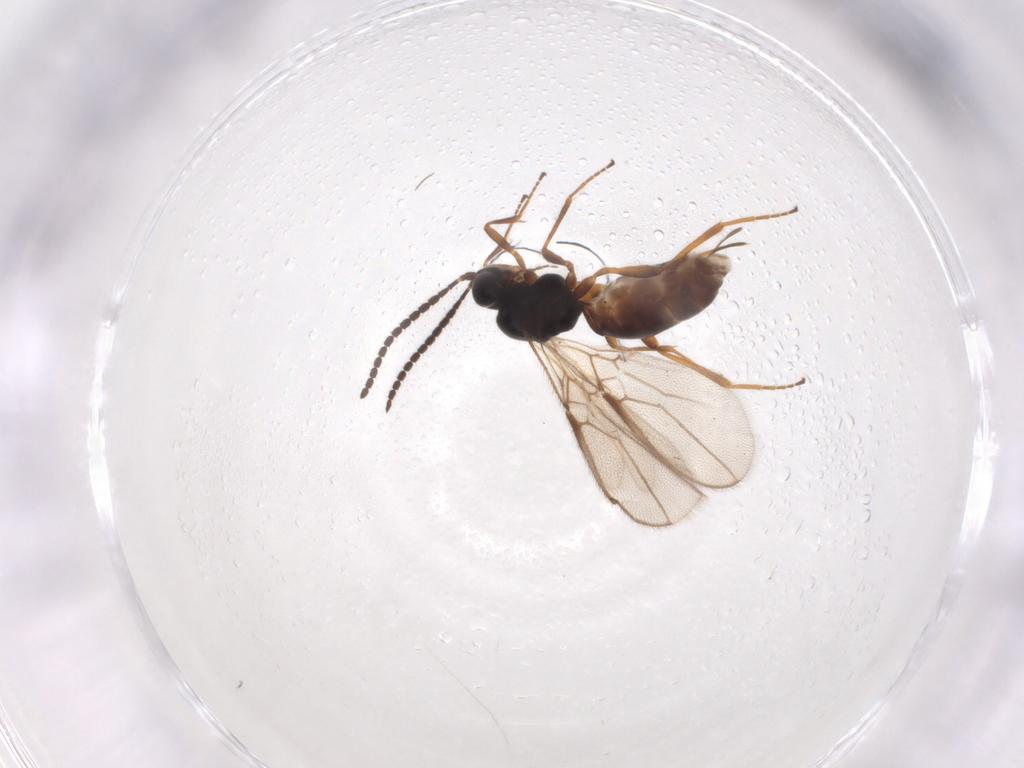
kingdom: Animalia
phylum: Arthropoda
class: Insecta
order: Hymenoptera
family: Braconidae
